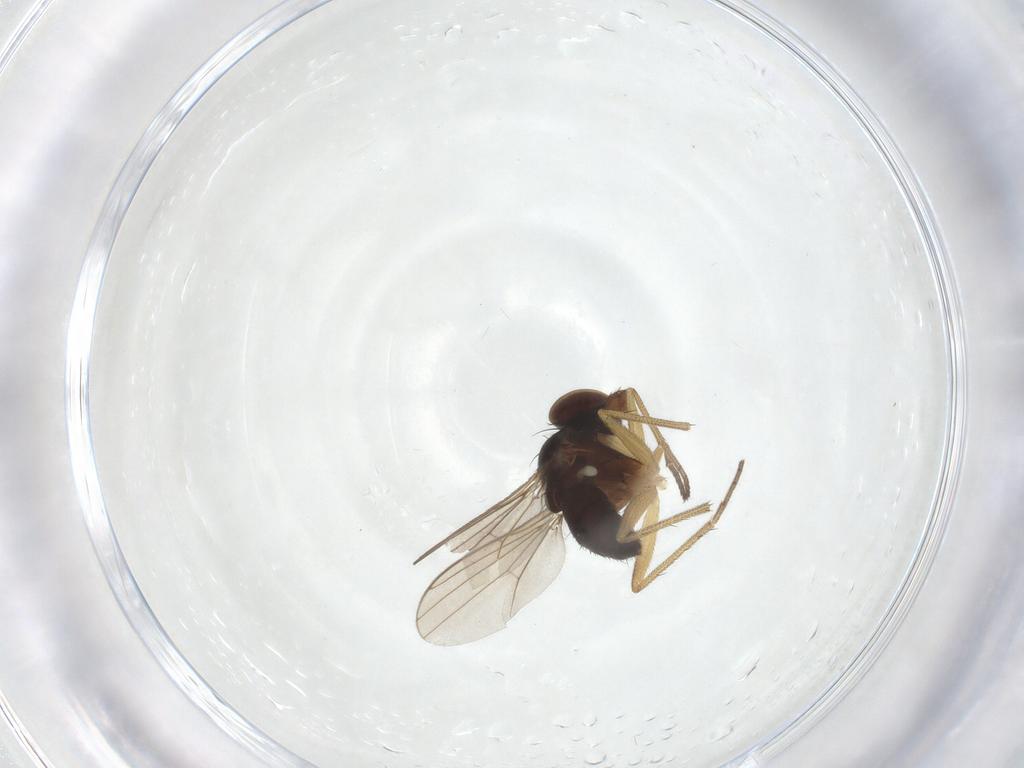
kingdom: Animalia
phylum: Arthropoda
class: Insecta
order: Diptera
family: Dolichopodidae
